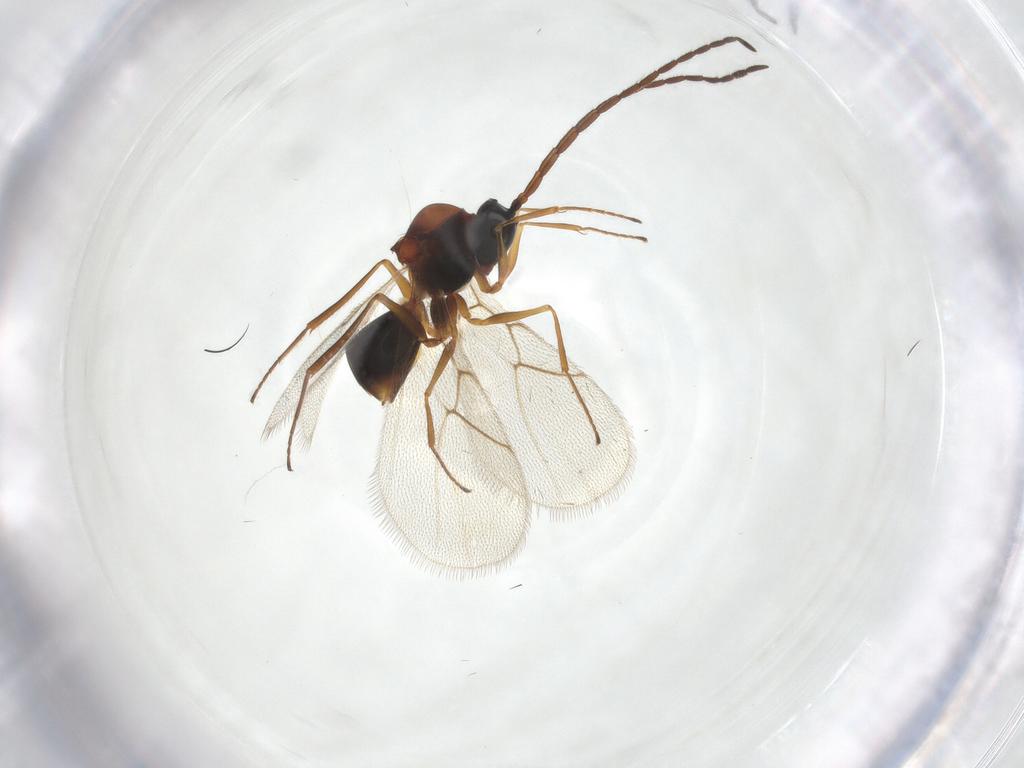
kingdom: Animalia
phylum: Arthropoda
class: Insecta
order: Hymenoptera
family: Figitidae
